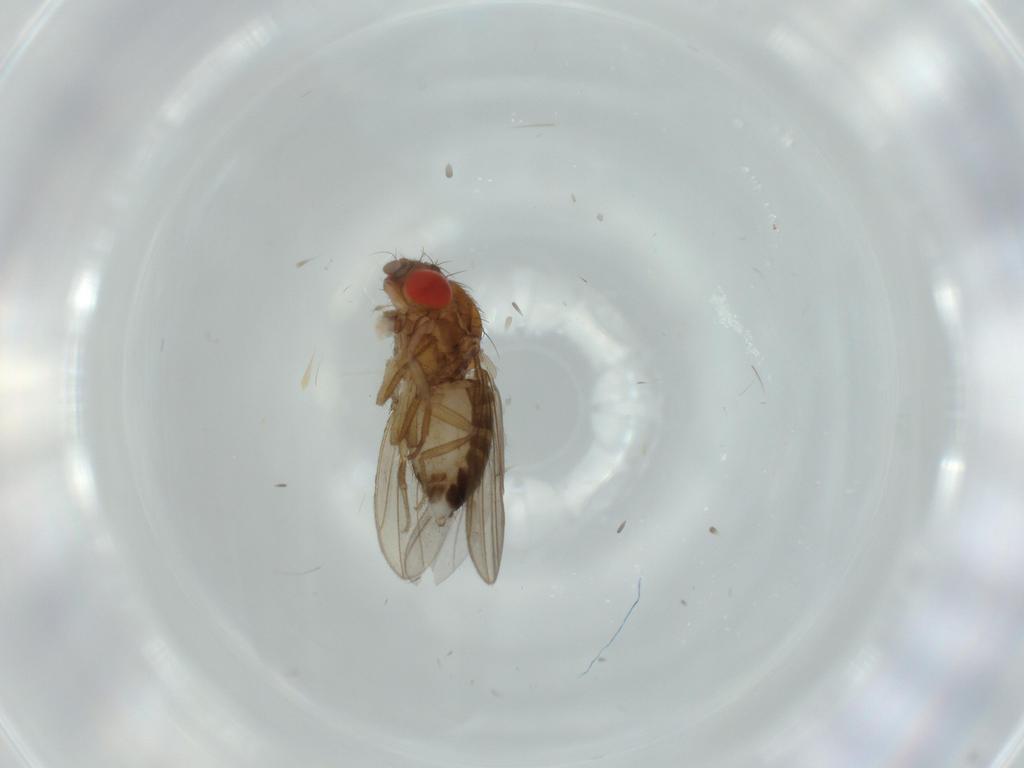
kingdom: Animalia
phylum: Arthropoda
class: Insecta
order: Diptera
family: Drosophilidae
